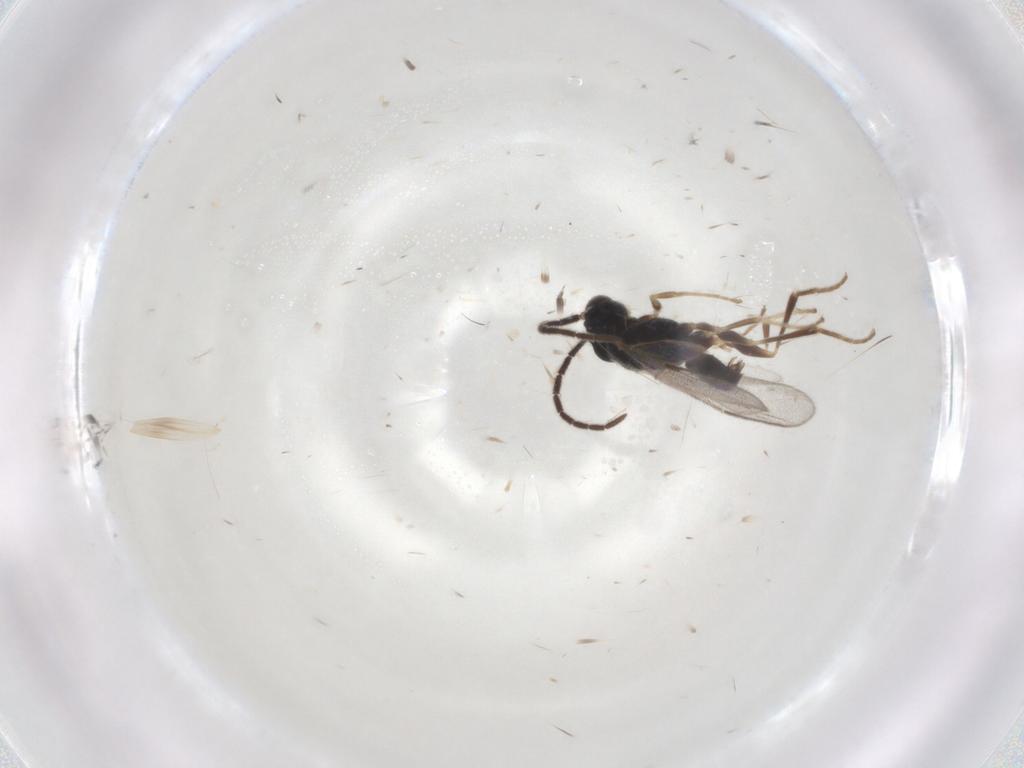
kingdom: Animalia
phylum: Arthropoda
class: Insecta
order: Hymenoptera
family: Dryinidae
